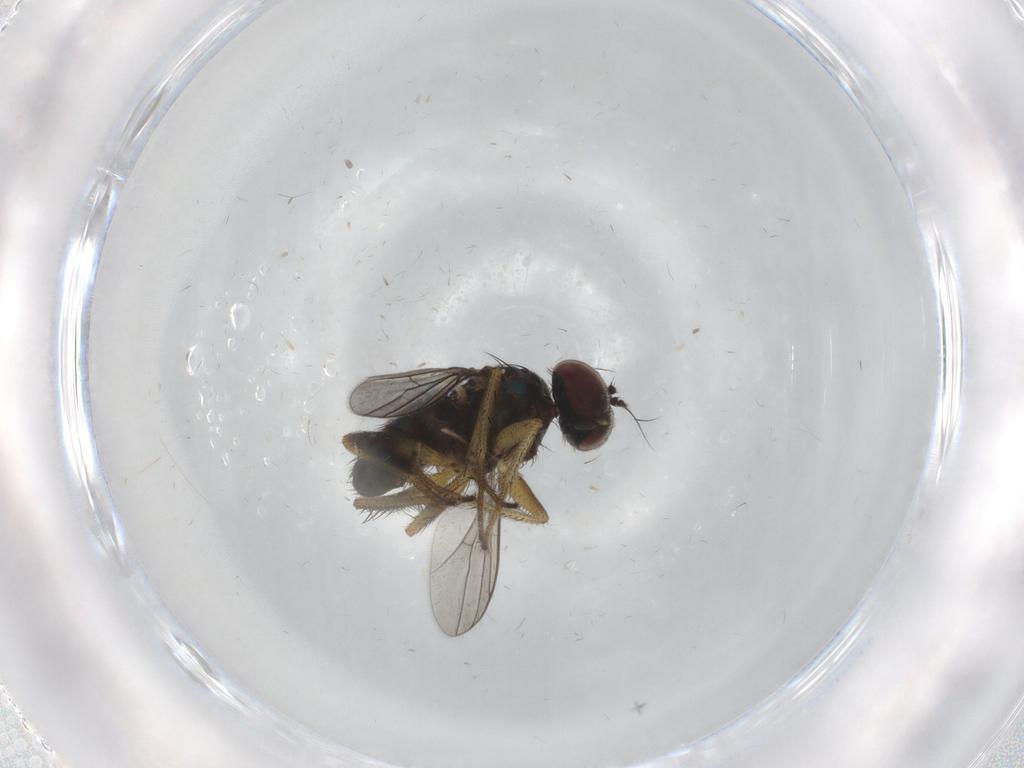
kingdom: Animalia
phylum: Arthropoda
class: Insecta
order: Diptera
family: Dolichopodidae
